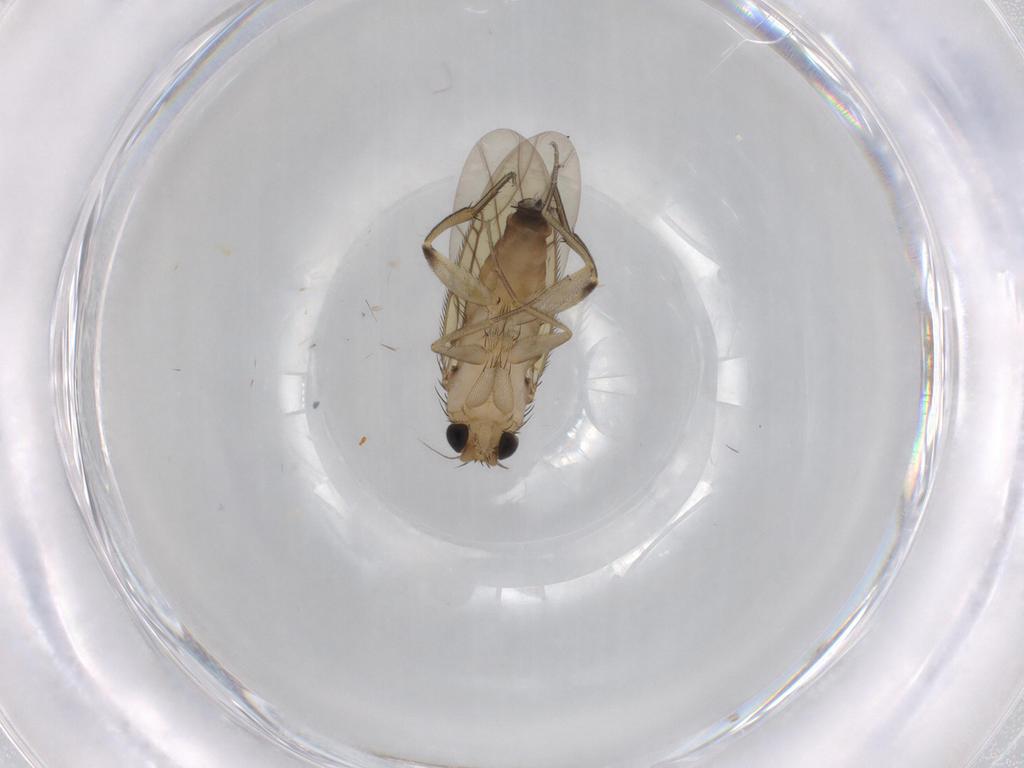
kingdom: Animalia
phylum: Arthropoda
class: Insecta
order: Diptera
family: Phoridae
